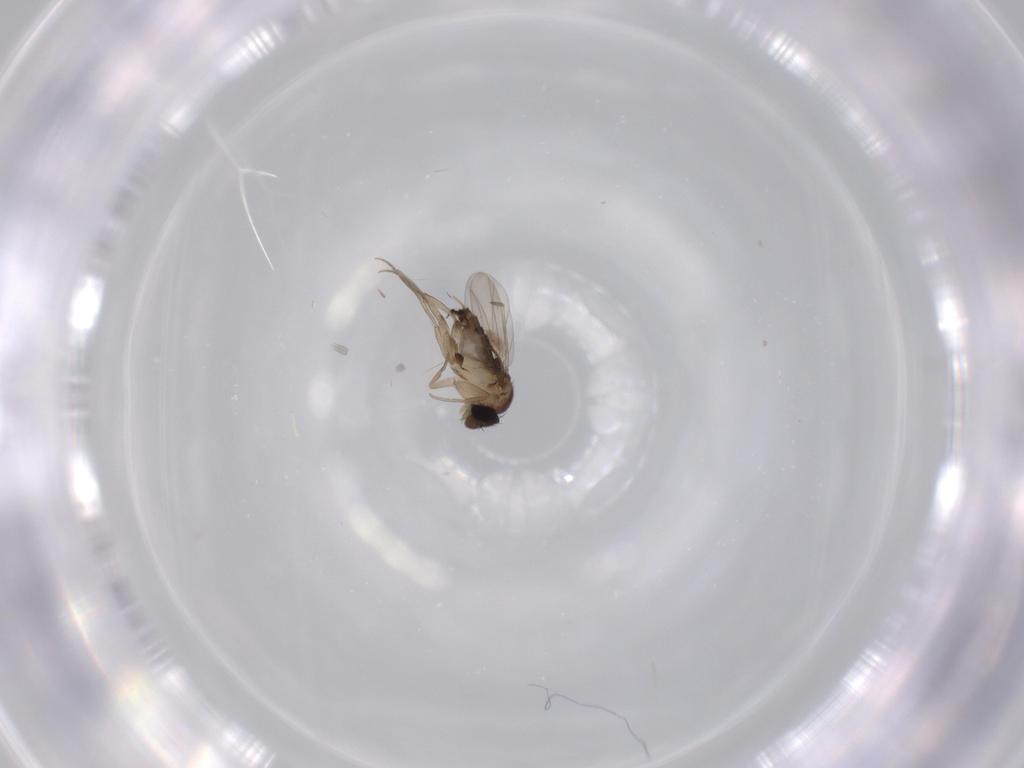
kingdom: Animalia
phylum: Arthropoda
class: Insecta
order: Diptera
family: Phoridae
